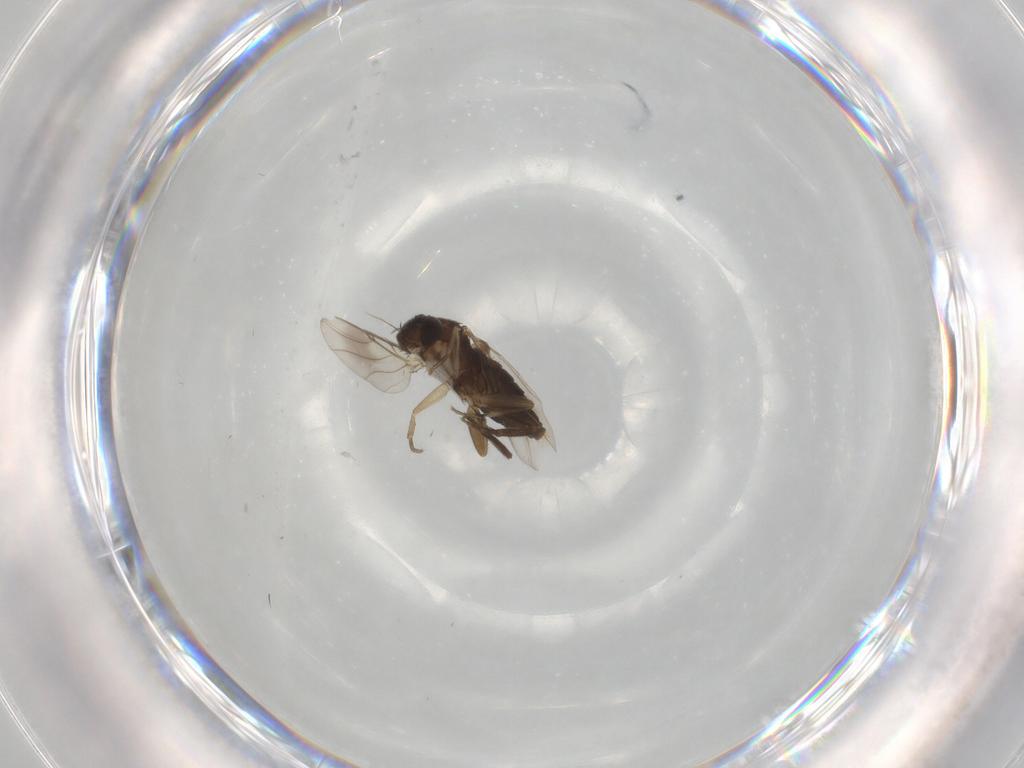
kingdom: Animalia
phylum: Arthropoda
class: Insecta
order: Diptera
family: Phoridae
